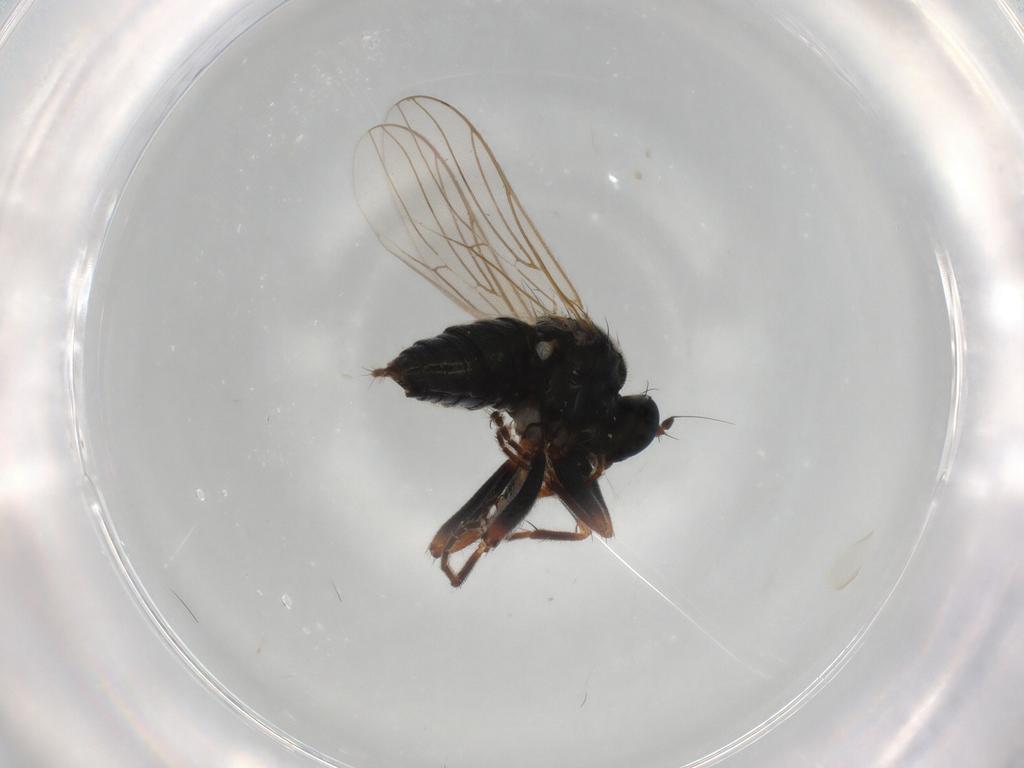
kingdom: Animalia
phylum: Arthropoda
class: Insecta
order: Diptera
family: Hybotidae
